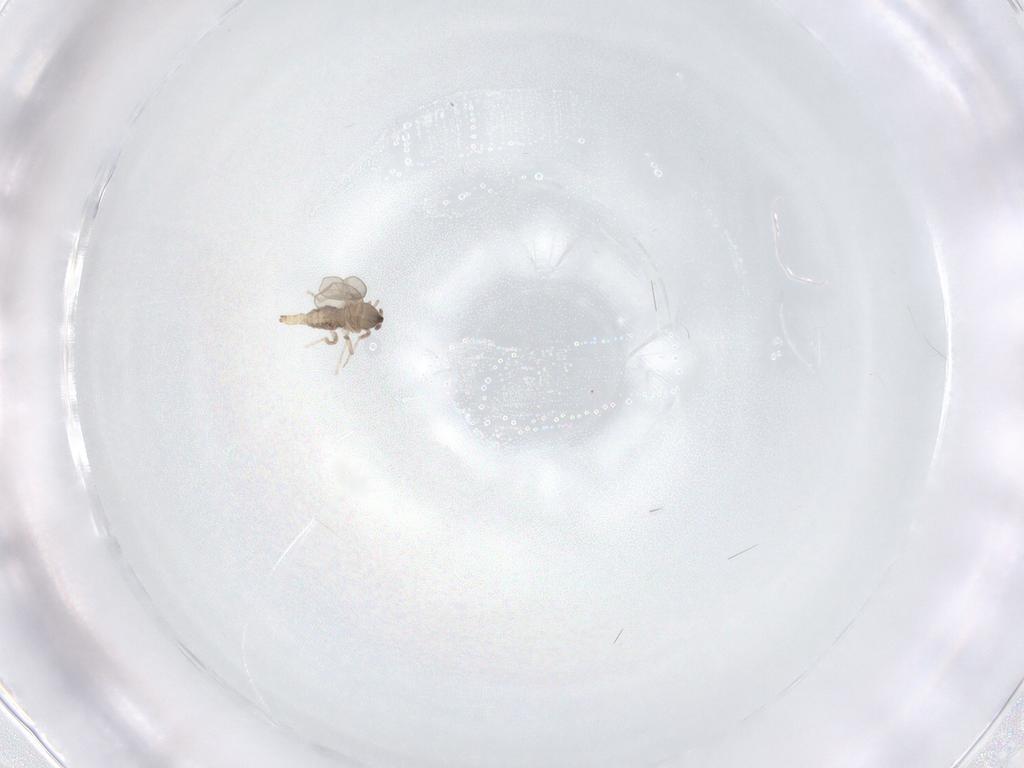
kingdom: Animalia
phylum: Arthropoda
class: Insecta
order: Diptera
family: Cecidomyiidae
